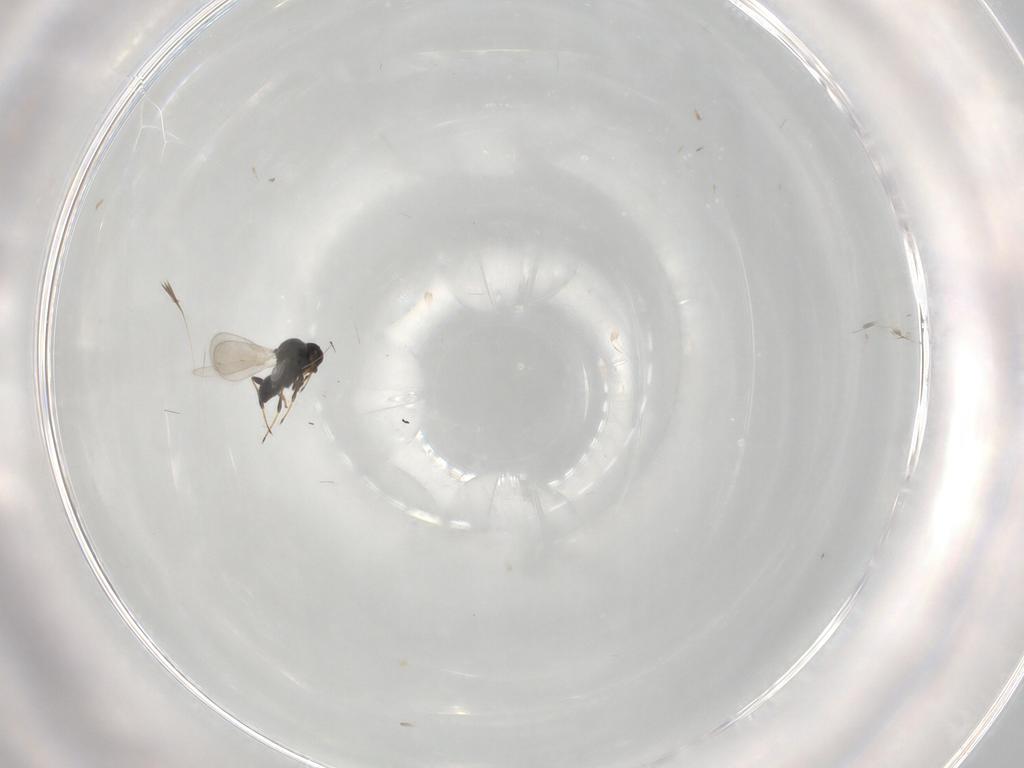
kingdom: Animalia
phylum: Arthropoda
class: Insecta
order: Hymenoptera
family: Platygastridae
